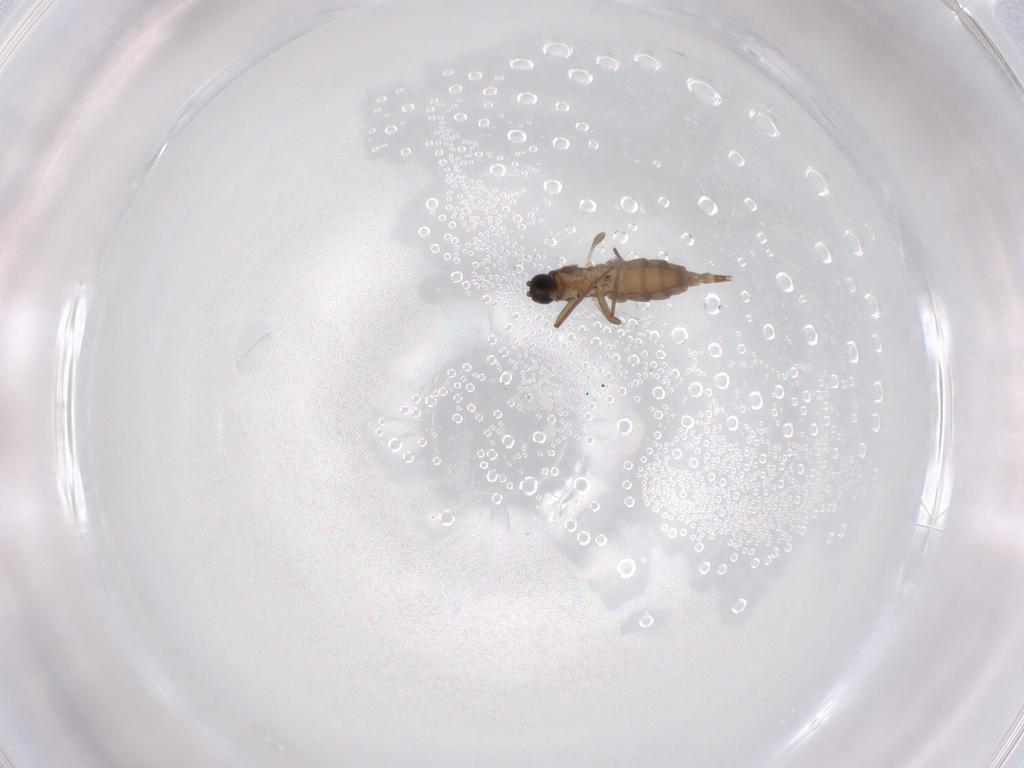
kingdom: Animalia
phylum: Arthropoda
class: Insecta
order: Diptera
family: Sciaridae
